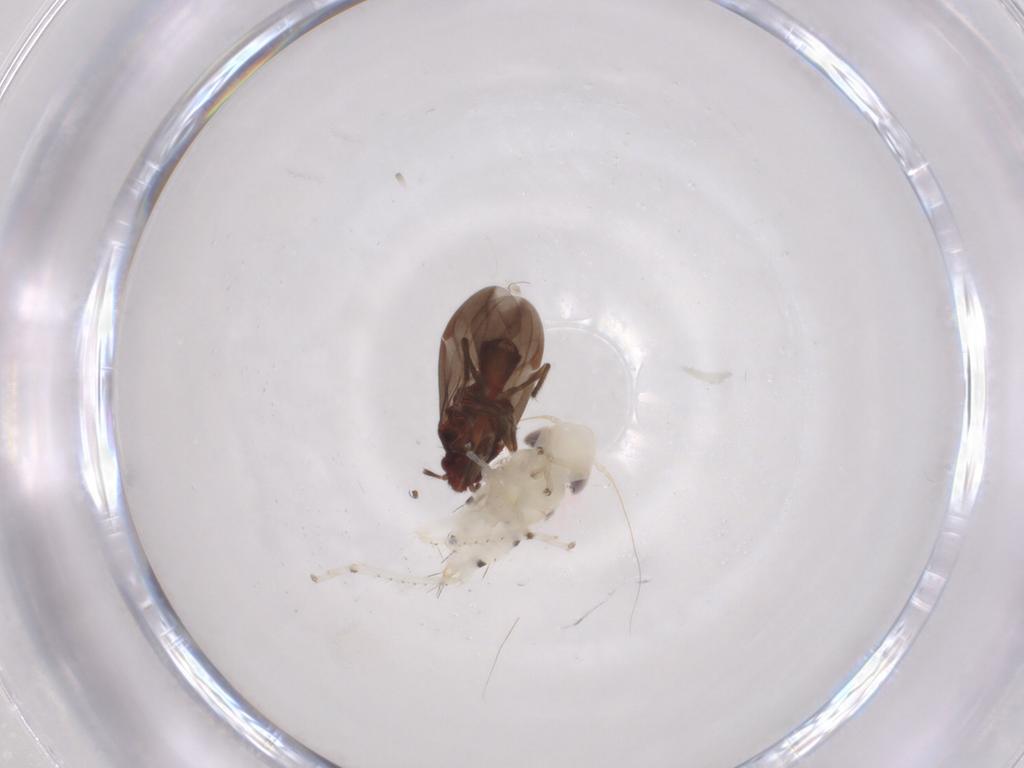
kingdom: Animalia
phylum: Arthropoda
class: Insecta
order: Hemiptera
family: Ceratocombidae
